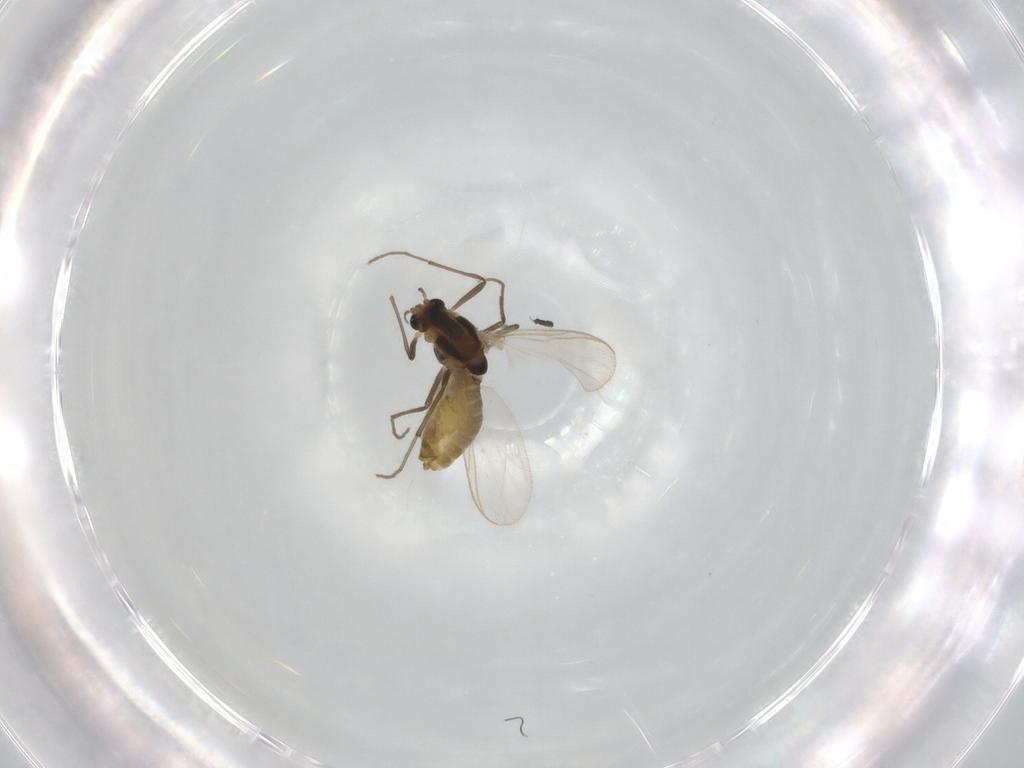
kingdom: Animalia
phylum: Arthropoda
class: Insecta
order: Diptera
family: Chironomidae
